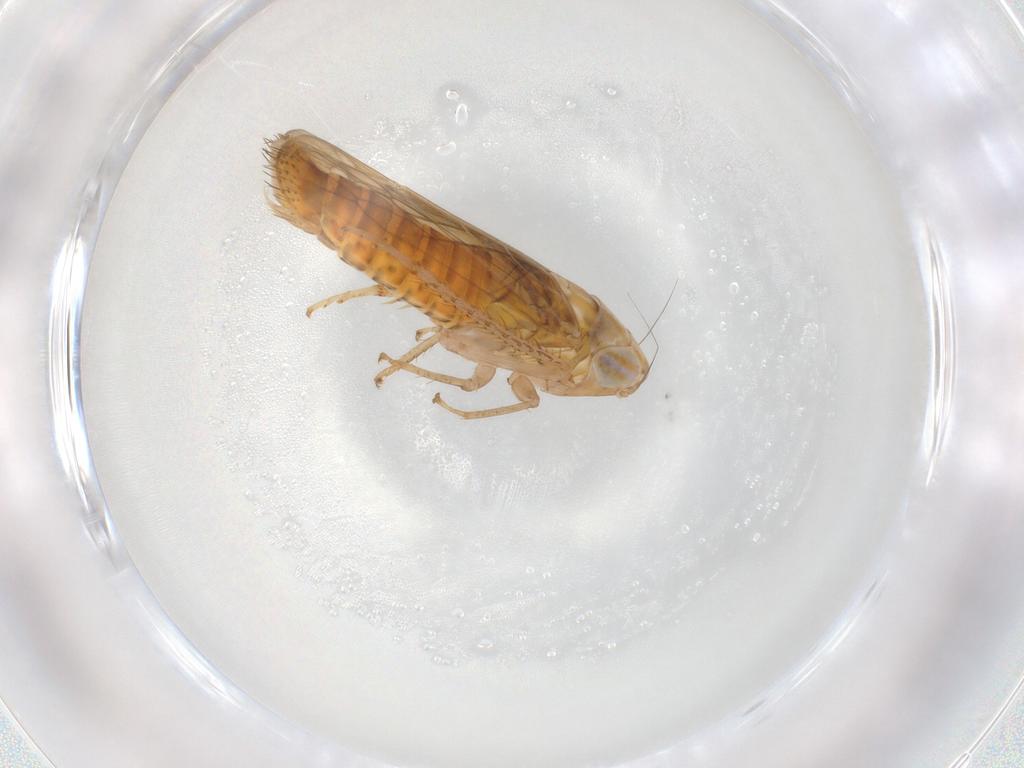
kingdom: Animalia
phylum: Arthropoda
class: Insecta
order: Hemiptera
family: Cicadellidae
